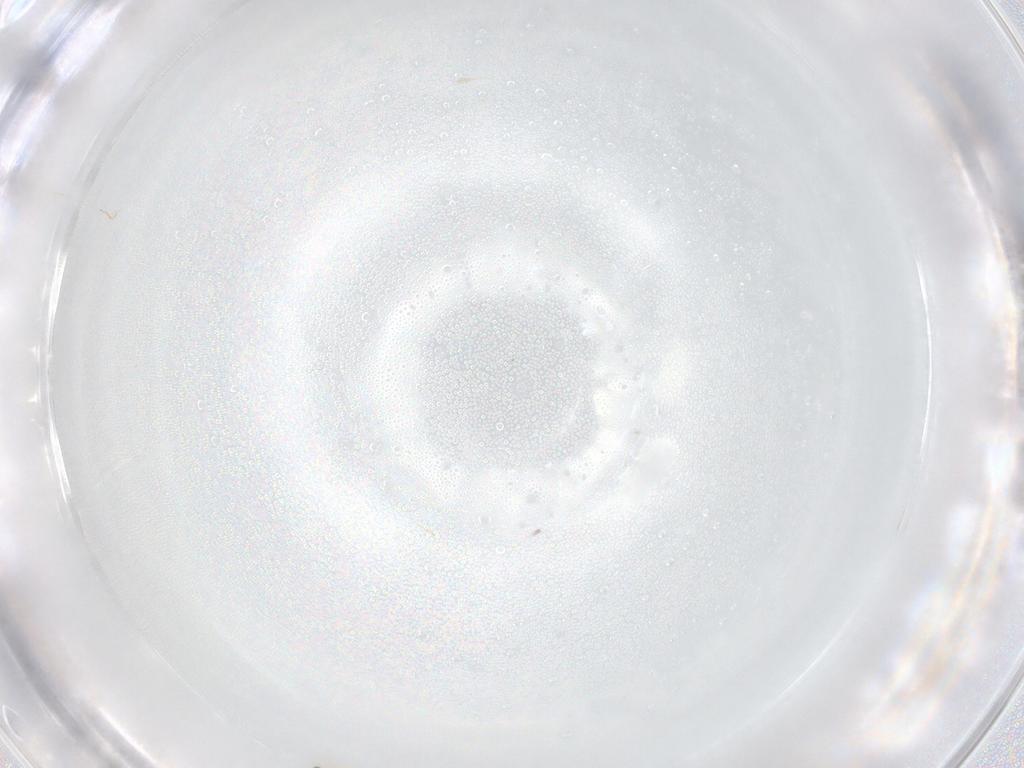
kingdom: Animalia
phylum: Arthropoda
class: Insecta
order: Hymenoptera
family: Mymaridae
